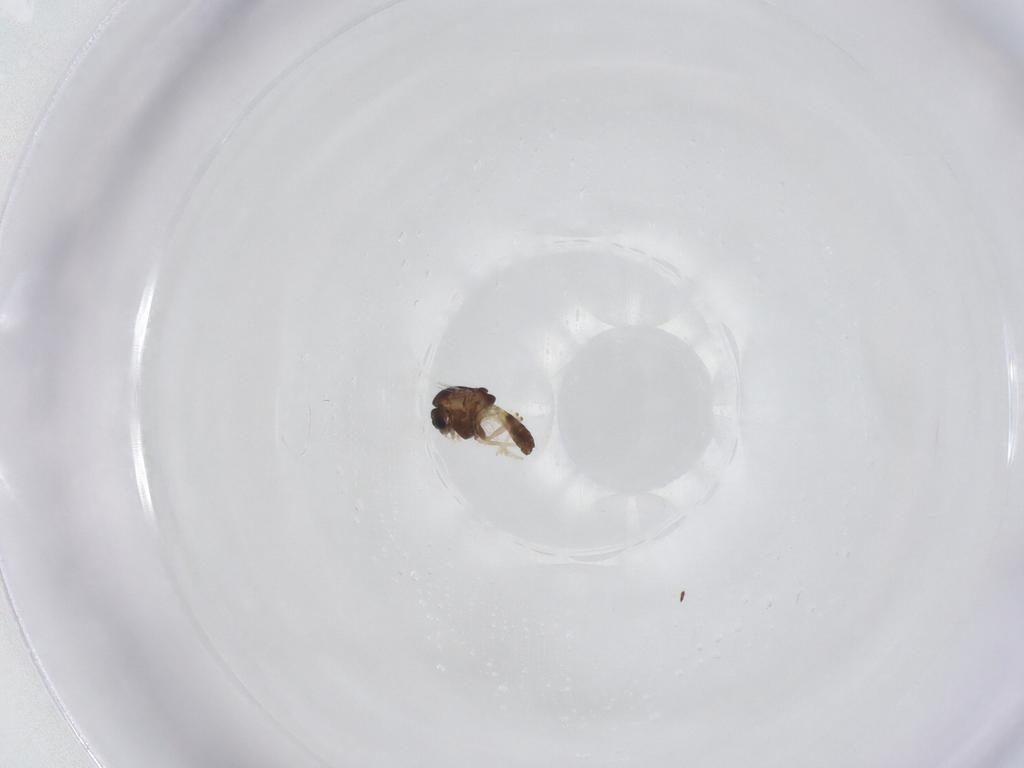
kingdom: Animalia
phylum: Arthropoda
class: Insecta
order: Diptera
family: Chironomidae
